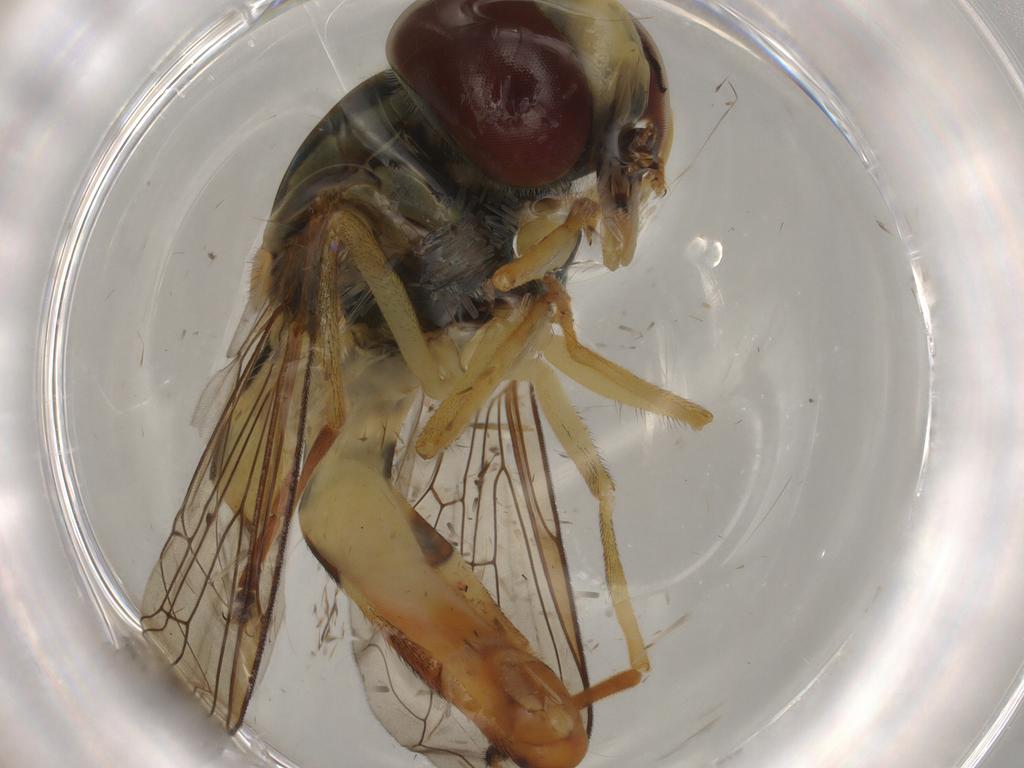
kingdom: Animalia
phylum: Arthropoda
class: Insecta
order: Diptera
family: Syrphidae
